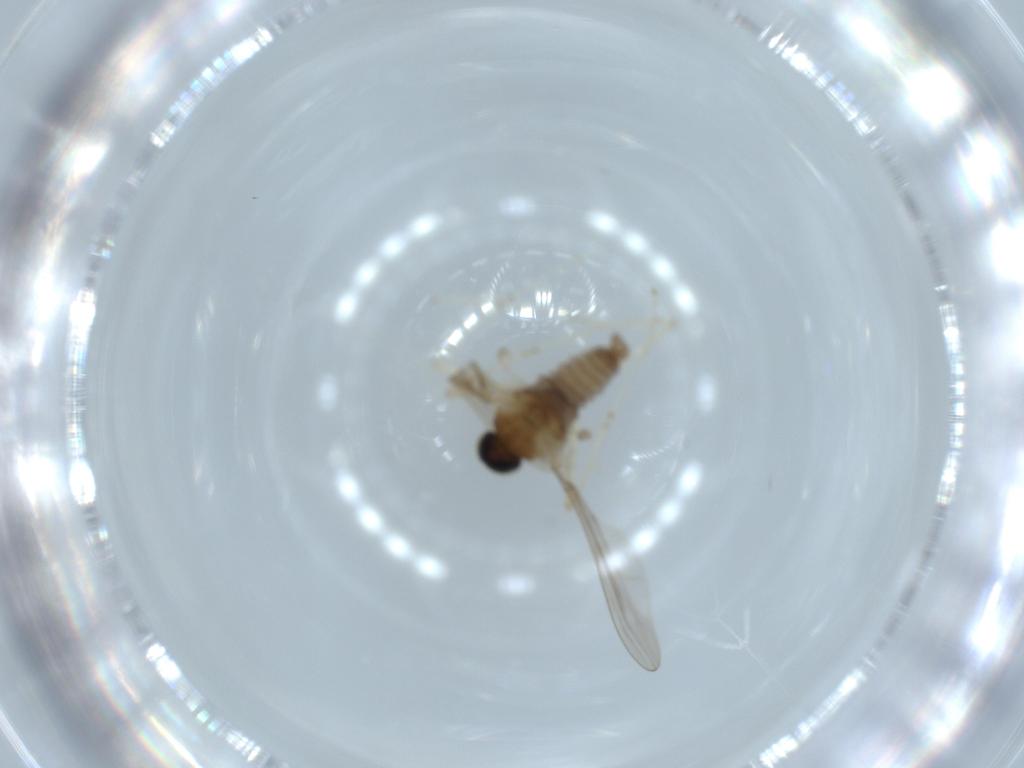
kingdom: Animalia
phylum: Arthropoda
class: Insecta
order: Diptera
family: Cecidomyiidae
